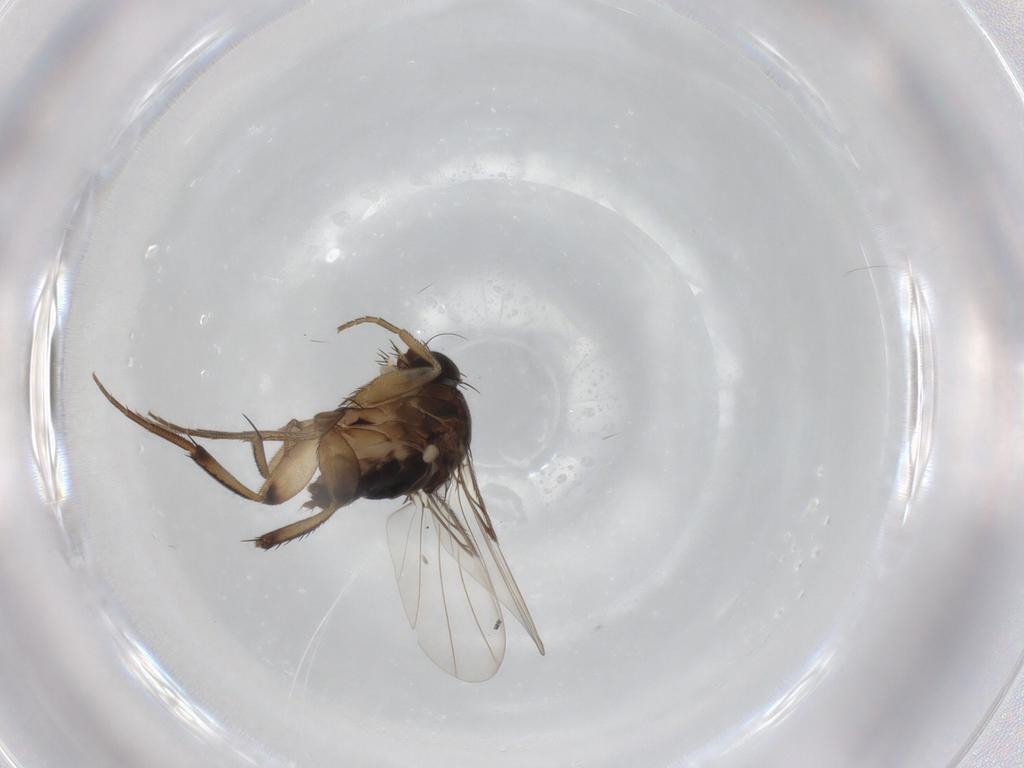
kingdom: Animalia
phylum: Arthropoda
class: Insecta
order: Diptera
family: Phoridae
